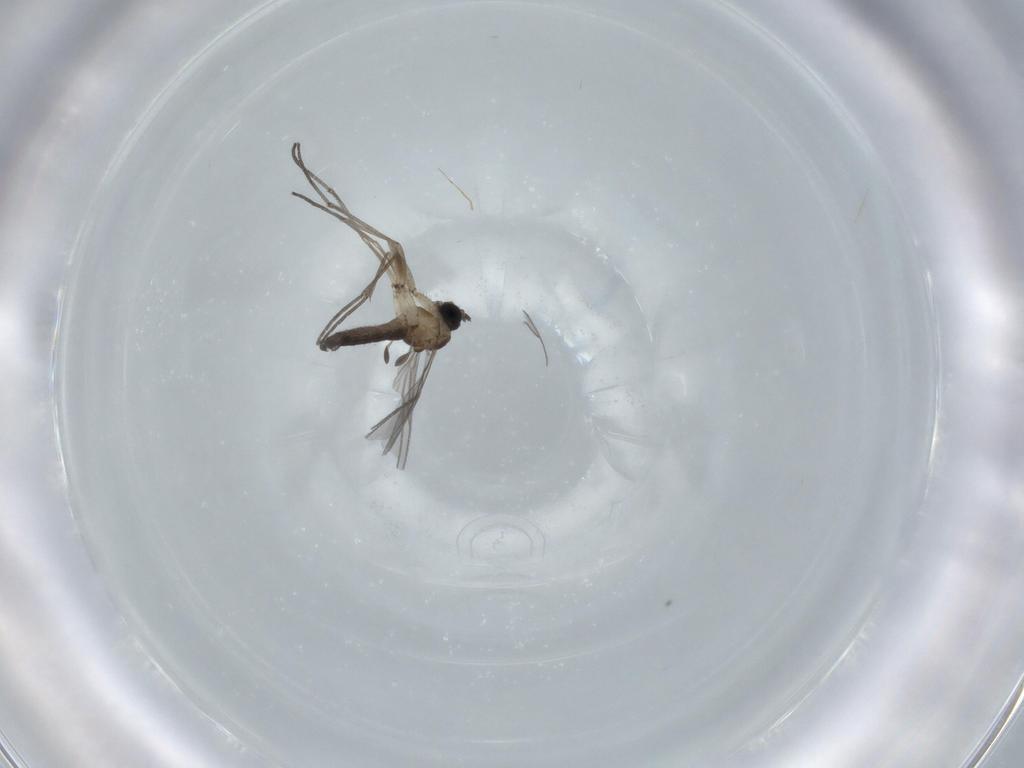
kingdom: Animalia
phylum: Arthropoda
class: Insecta
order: Diptera
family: Sciaridae
